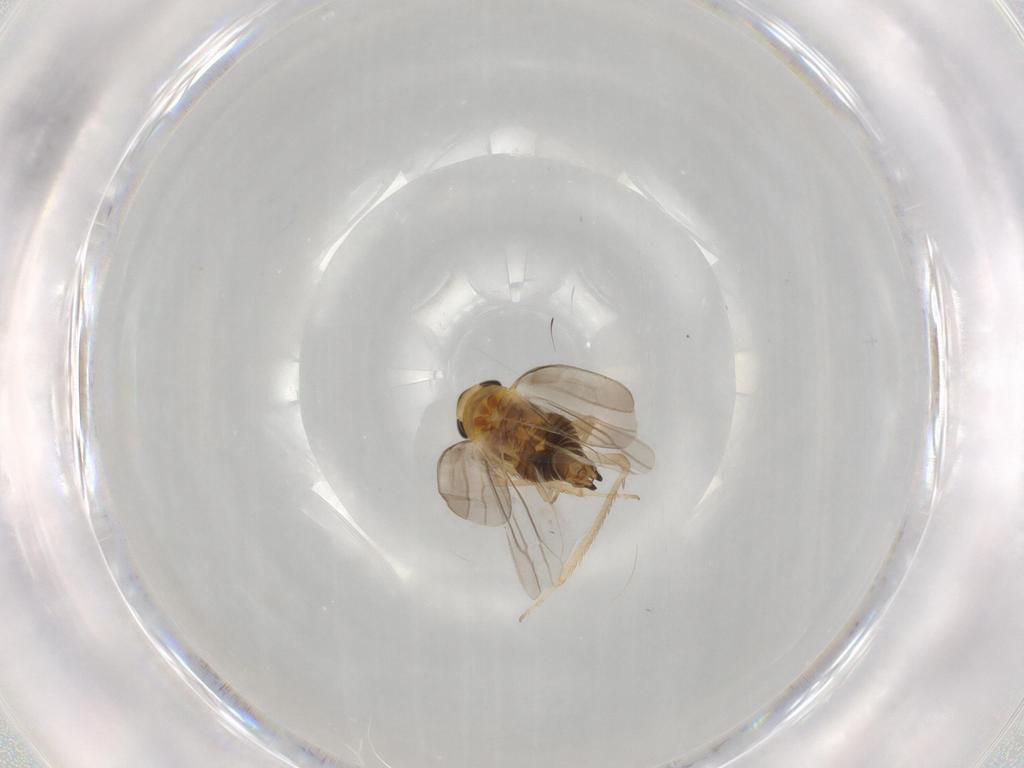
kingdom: Animalia
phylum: Arthropoda
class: Insecta
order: Hemiptera
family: Cicadellidae
